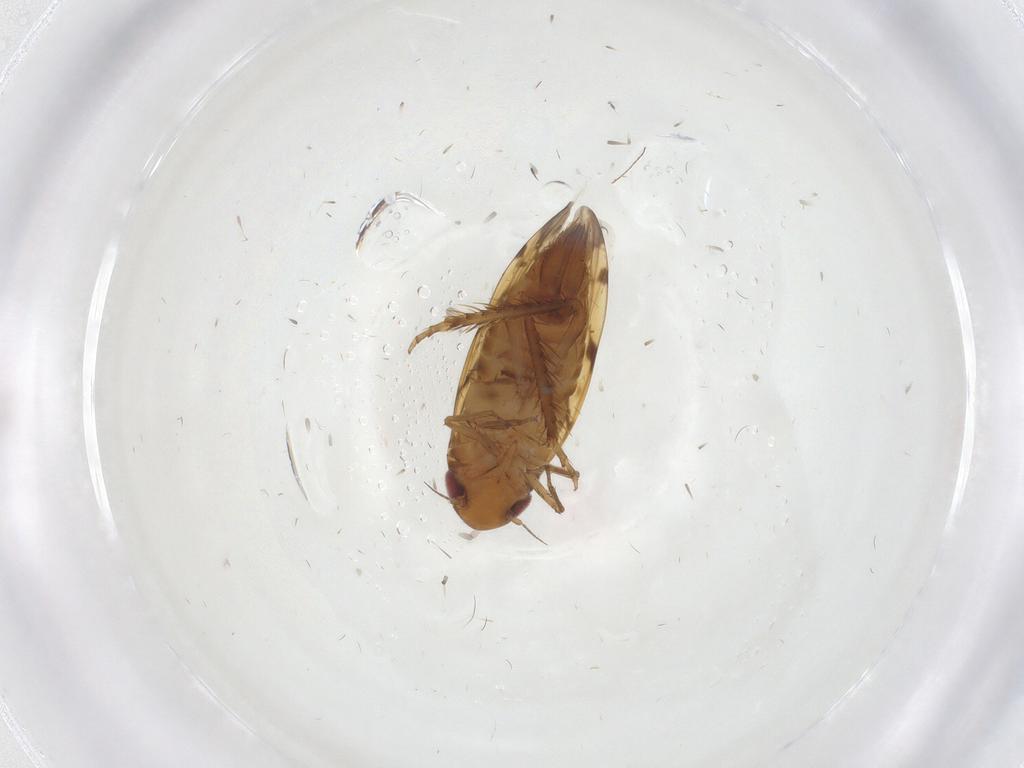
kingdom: Animalia
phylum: Arthropoda
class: Insecta
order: Hemiptera
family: Cicadellidae
